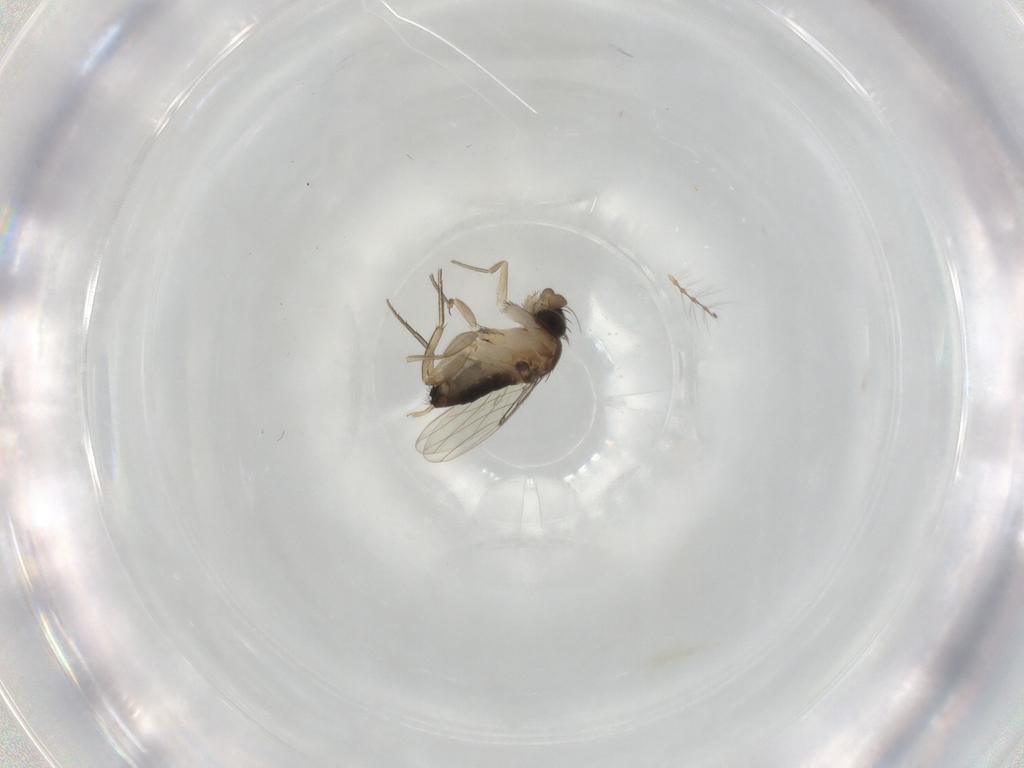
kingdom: Animalia
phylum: Arthropoda
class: Insecta
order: Diptera
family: Phoridae
